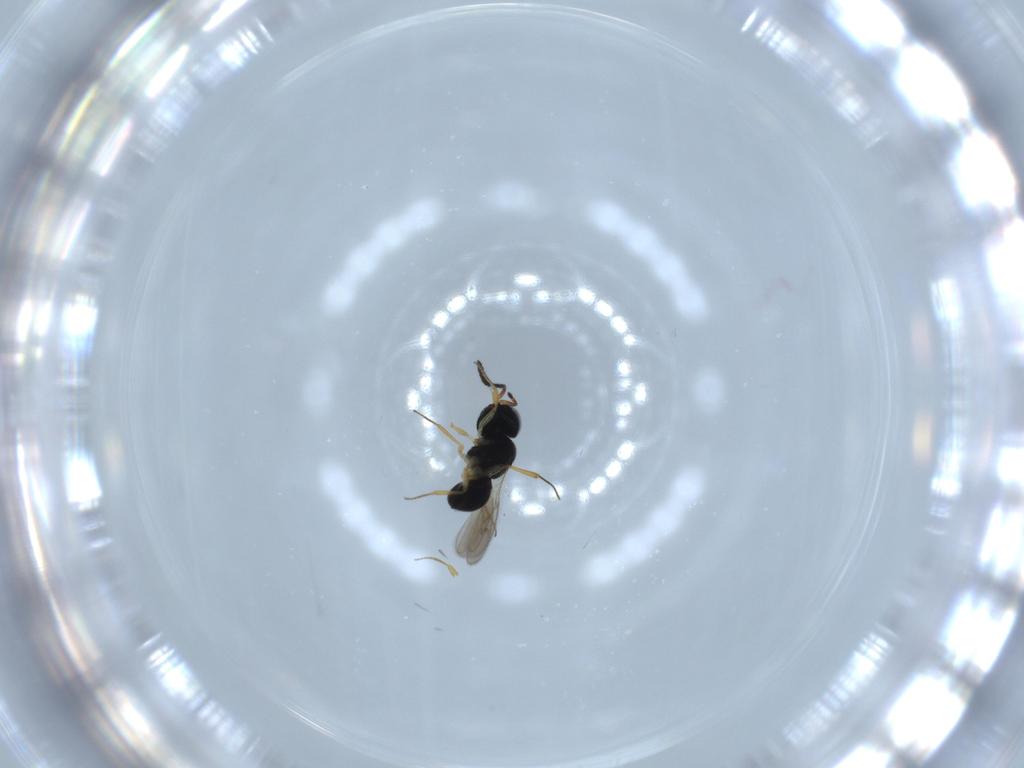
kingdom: Animalia
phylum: Arthropoda
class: Insecta
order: Hymenoptera
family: Scelionidae
